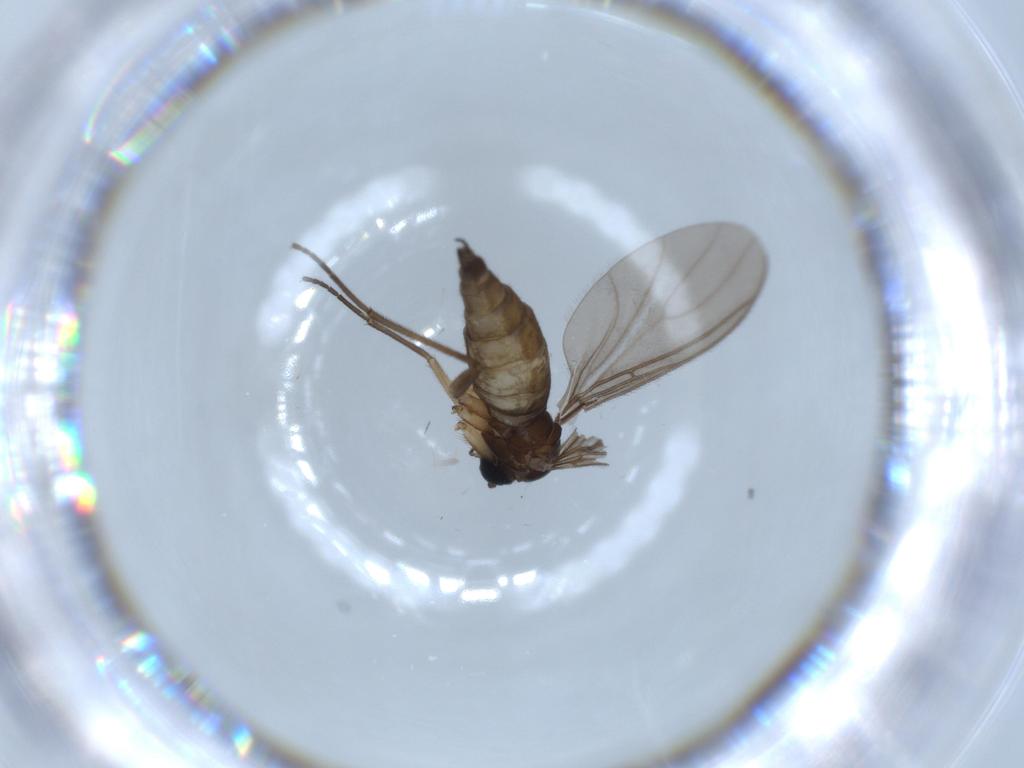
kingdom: Animalia
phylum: Arthropoda
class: Insecta
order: Diptera
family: Sciaridae
